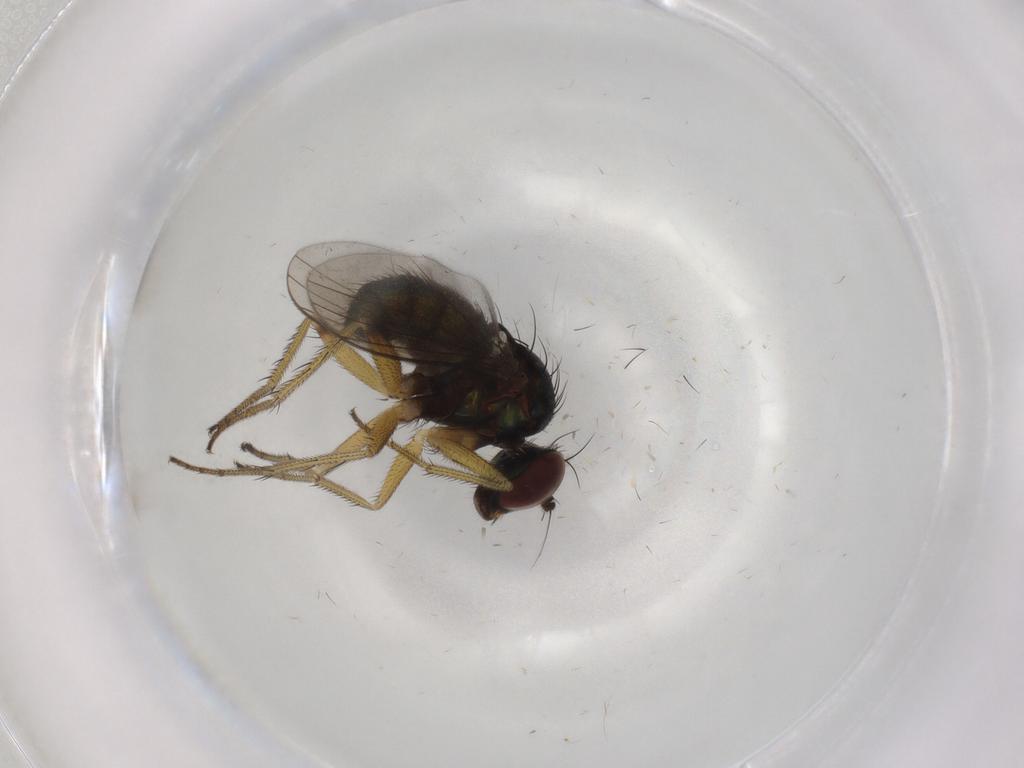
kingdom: Animalia
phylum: Arthropoda
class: Insecta
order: Diptera
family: Dolichopodidae
